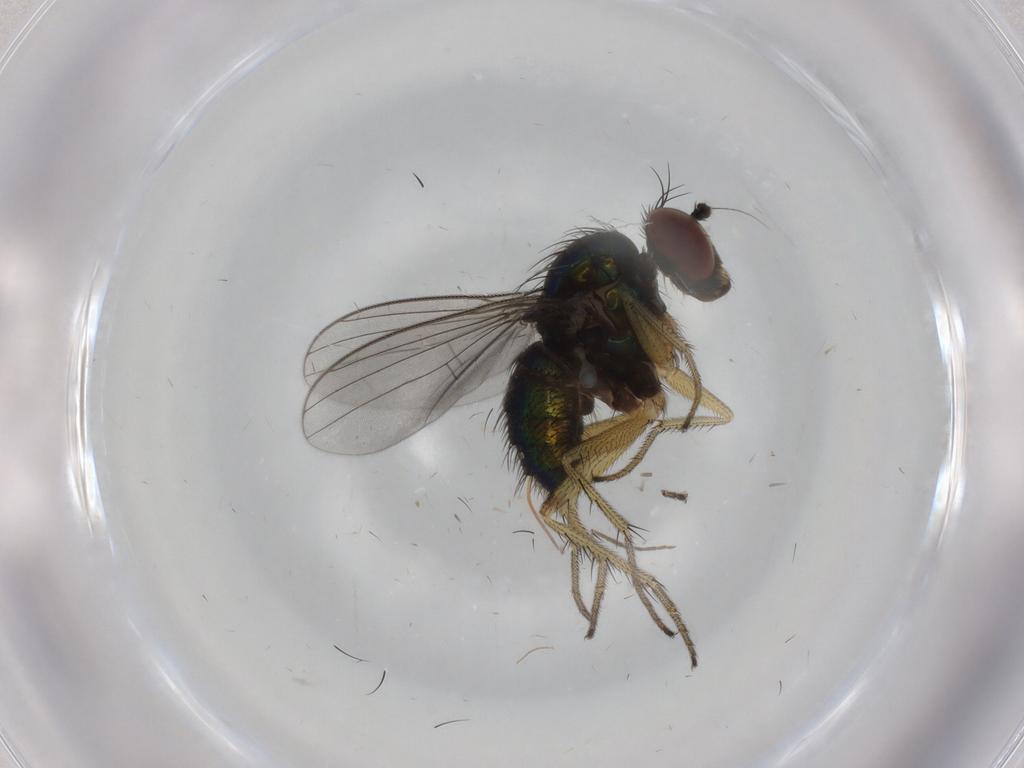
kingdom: Animalia
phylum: Arthropoda
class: Insecta
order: Diptera
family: Dolichopodidae
